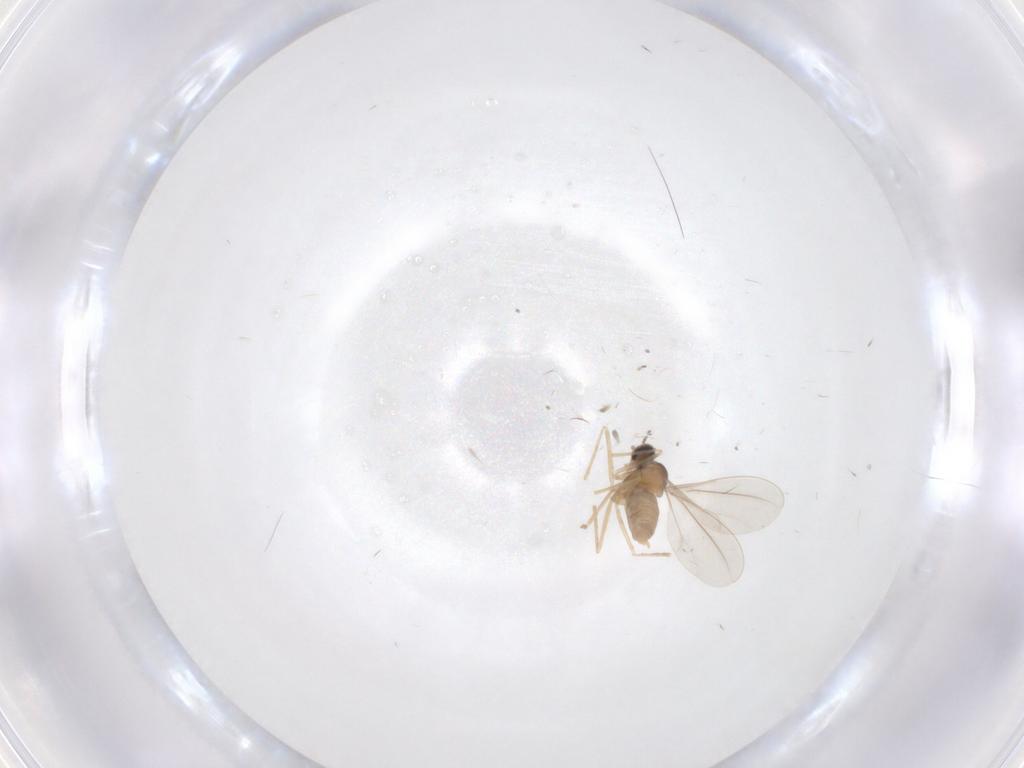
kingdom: Animalia
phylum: Arthropoda
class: Insecta
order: Diptera
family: Cecidomyiidae
